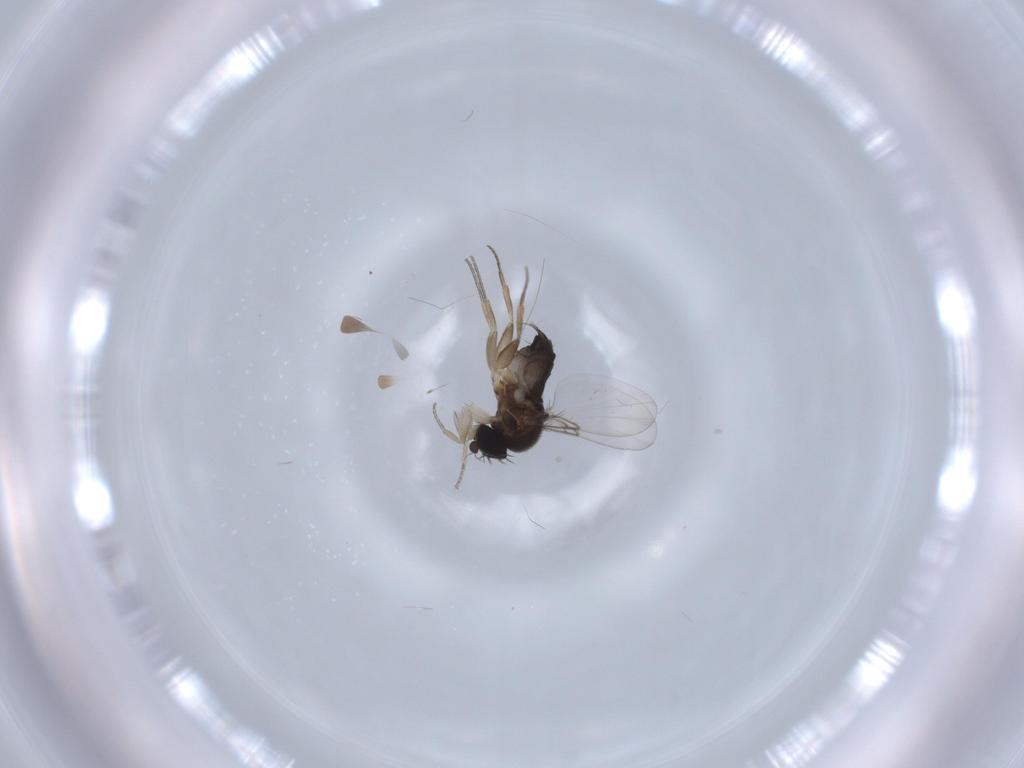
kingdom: Animalia
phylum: Arthropoda
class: Insecta
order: Diptera
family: Phoridae
